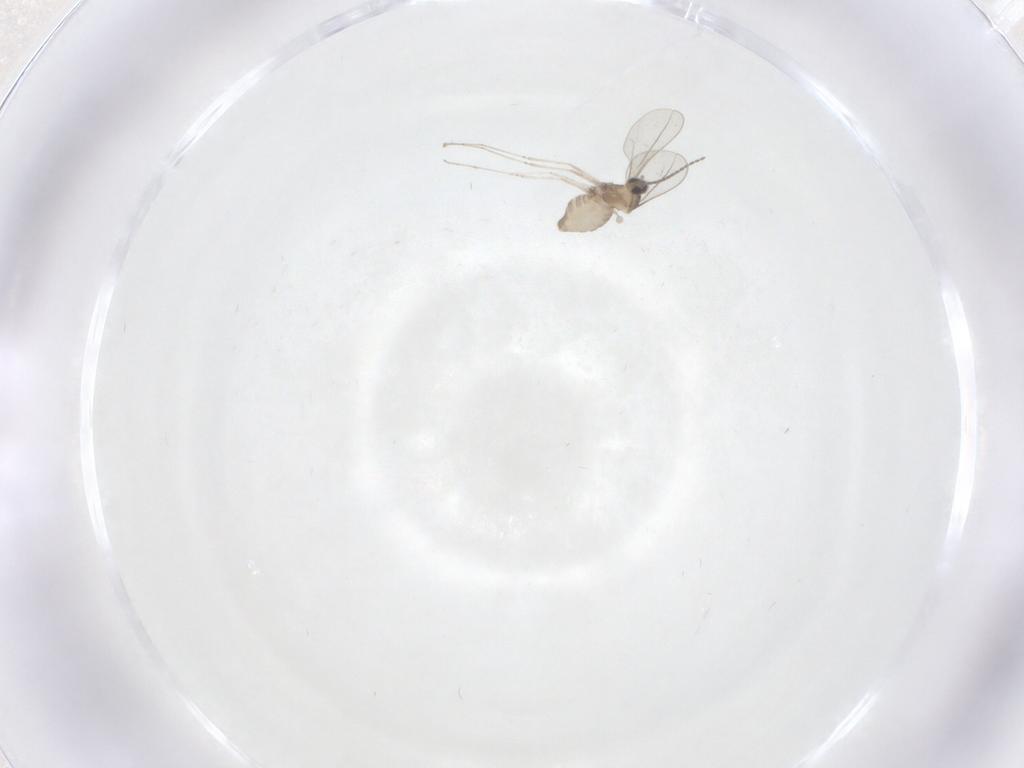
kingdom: Animalia
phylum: Arthropoda
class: Insecta
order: Diptera
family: Cecidomyiidae
